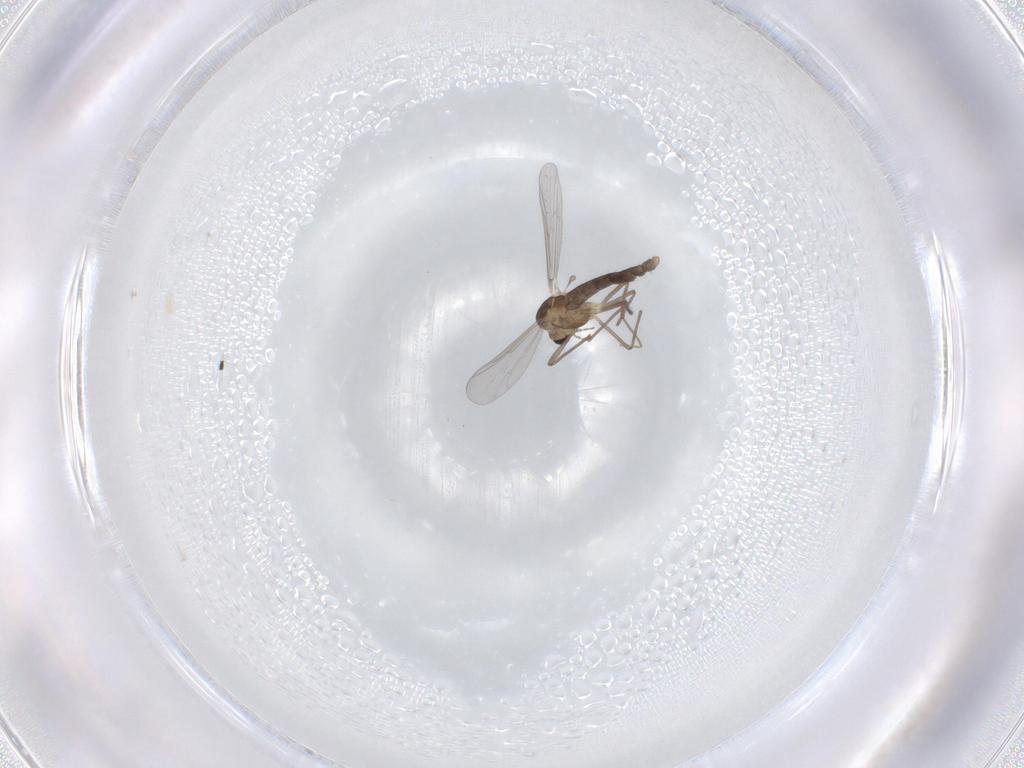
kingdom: Animalia
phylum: Arthropoda
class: Insecta
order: Diptera
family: Chironomidae
